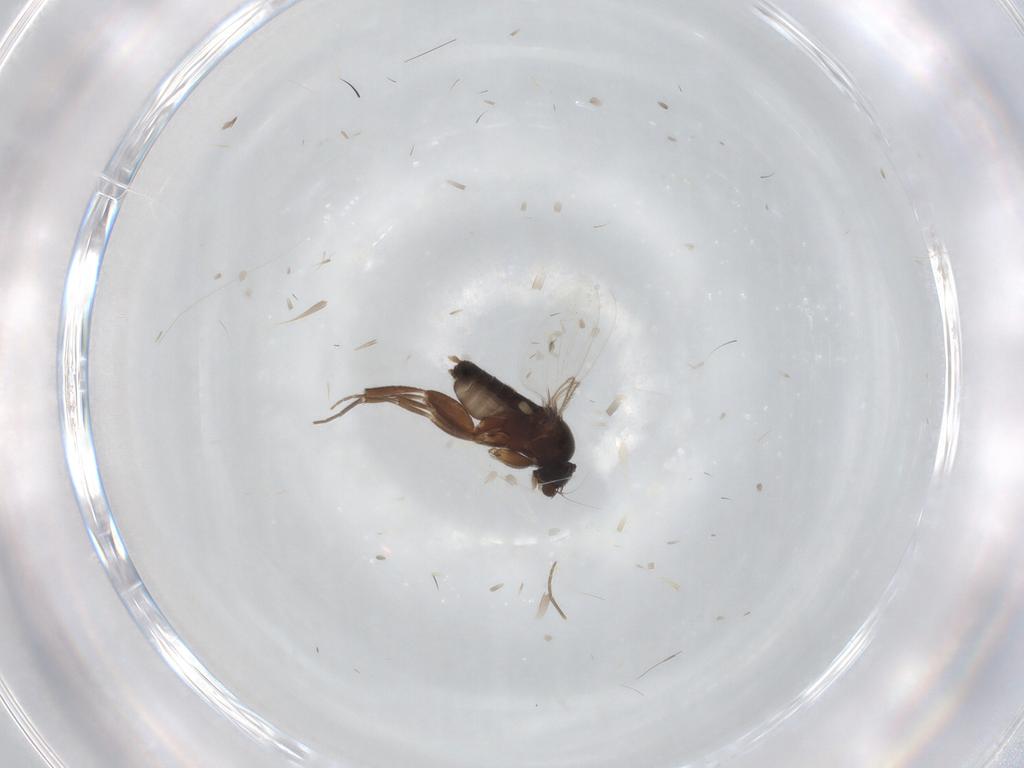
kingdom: Animalia
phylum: Arthropoda
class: Insecta
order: Diptera
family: Phoridae
